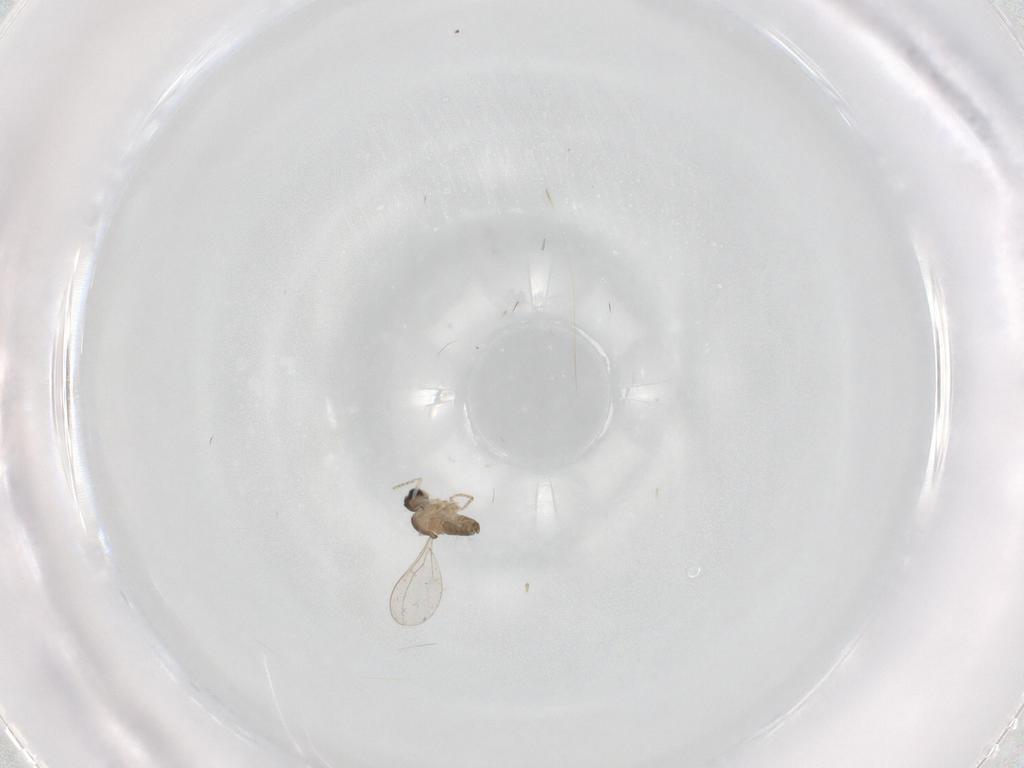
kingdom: Animalia
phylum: Arthropoda
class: Insecta
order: Diptera
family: Cecidomyiidae
